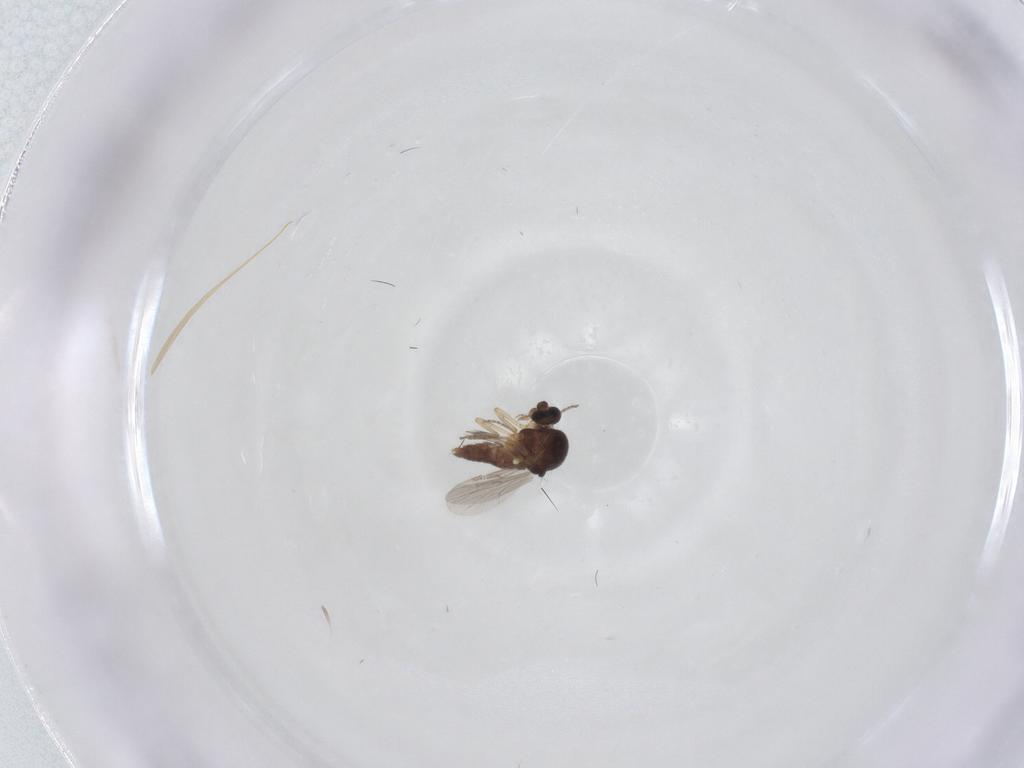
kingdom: Animalia
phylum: Arthropoda
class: Insecta
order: Diptera
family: Ceratopogonidae
